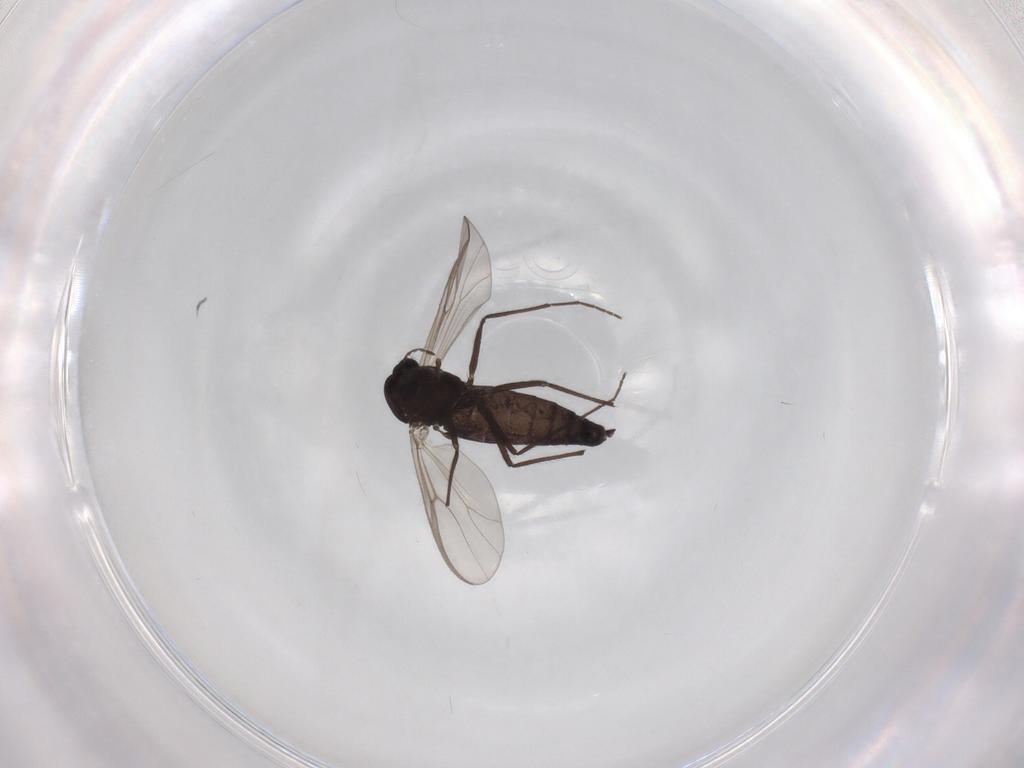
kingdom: Animalia
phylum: Arthropoda
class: Insecta
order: Diptera
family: Chironomidae
